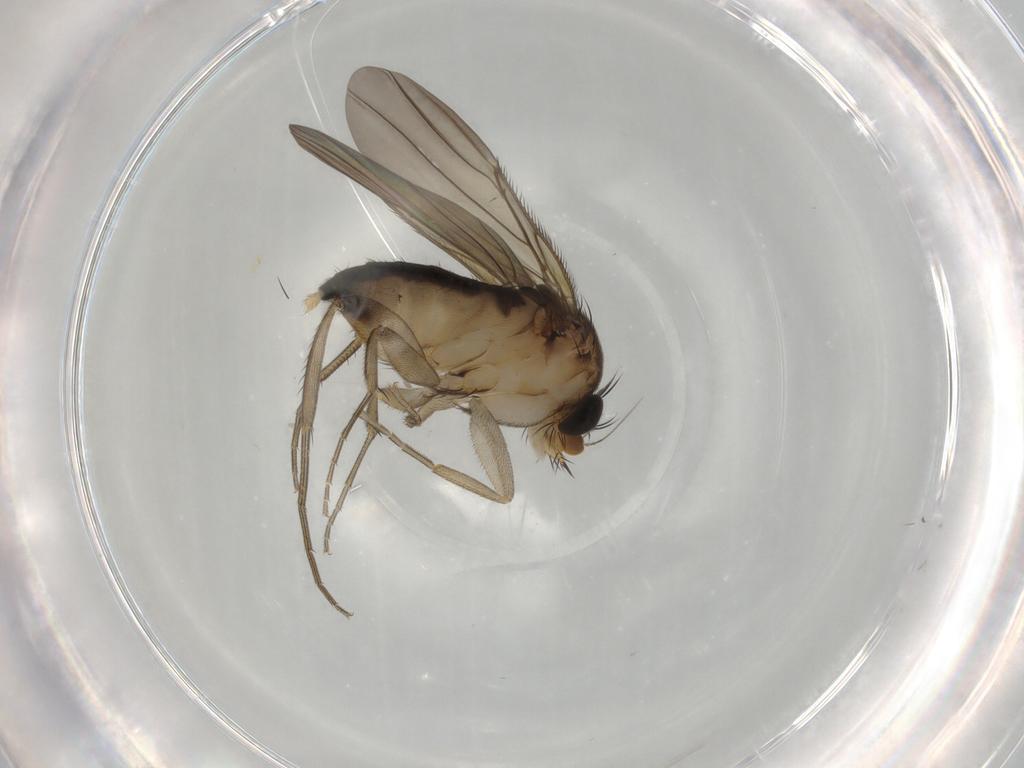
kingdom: Animalia
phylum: Arthropoda
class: Insecta
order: Diptera
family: Phoridae
